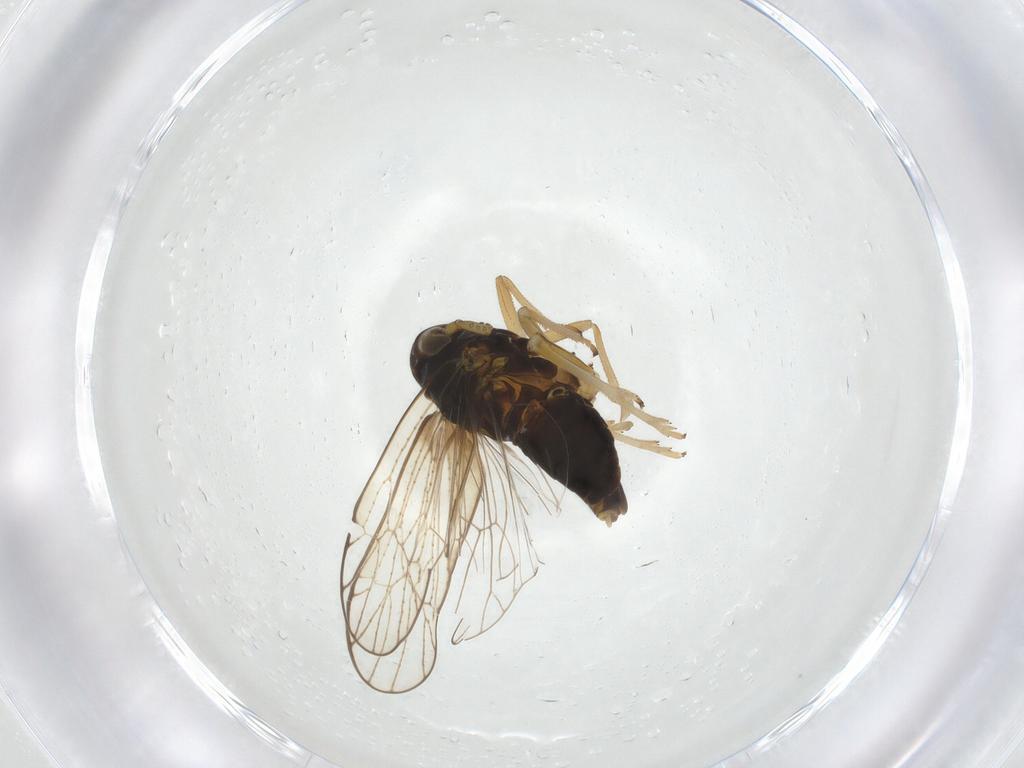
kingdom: Animalia
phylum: Arthropoda
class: Insecta
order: Hemiptera
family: Delphacidae
